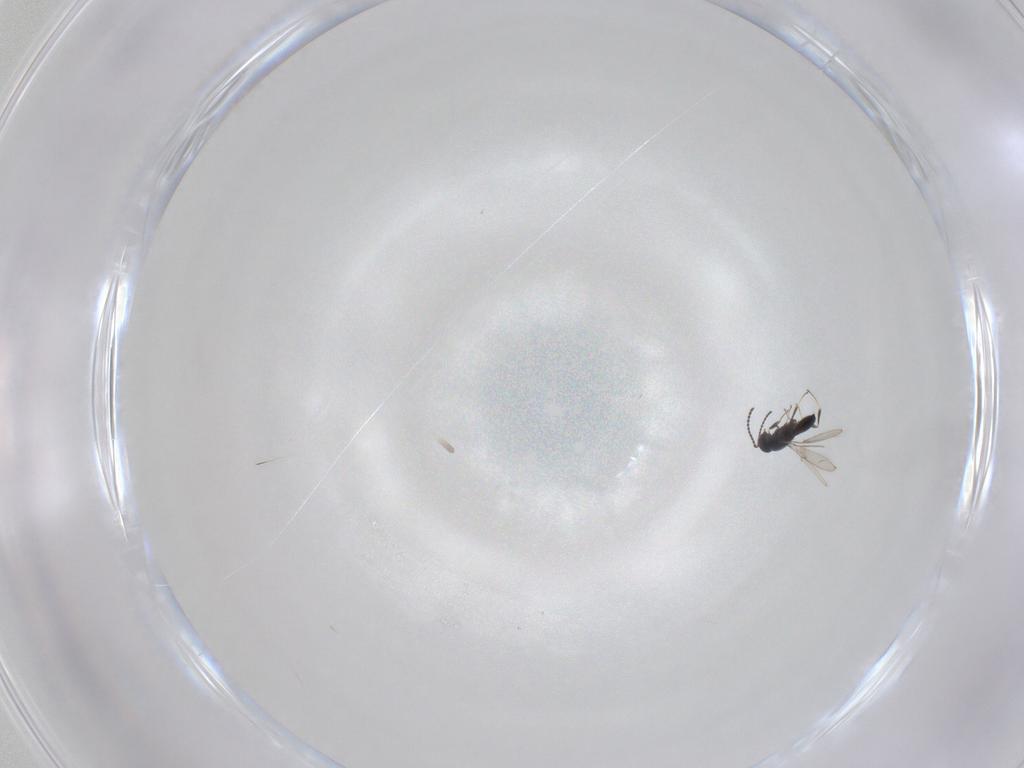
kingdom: Animalia
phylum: Arthropoda
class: Insecta
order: Hymenoptera
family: Scelionidae
